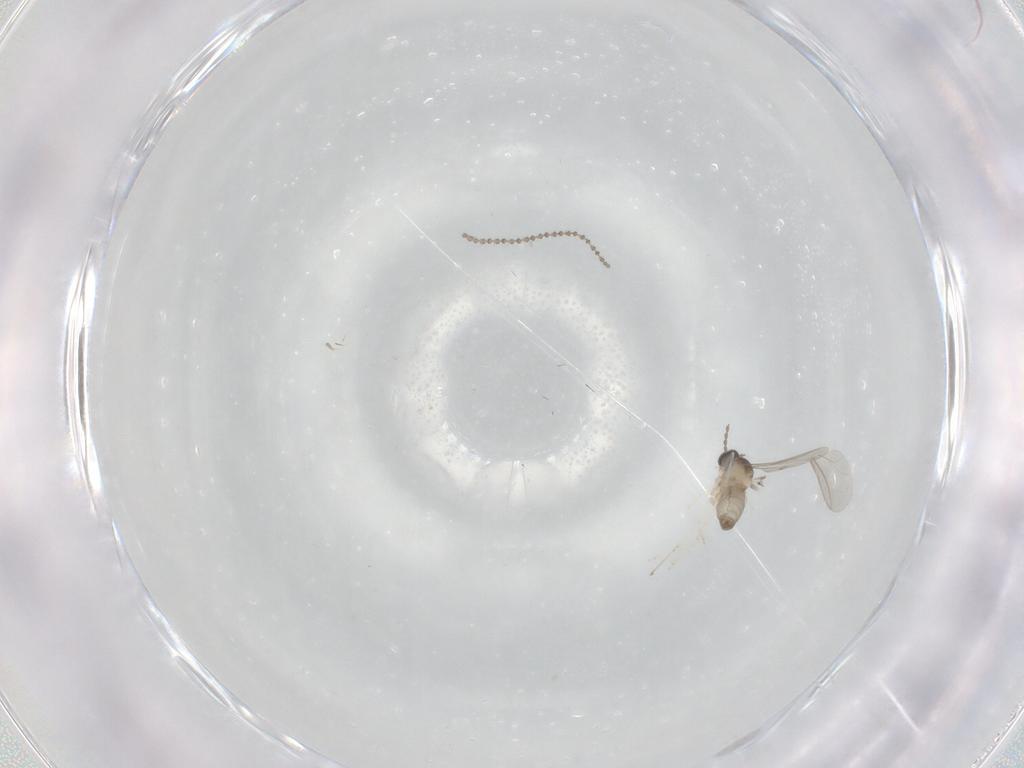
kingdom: Animalia
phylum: Arthropoda
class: Insecta
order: Diptera
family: Cecidomyiidae
